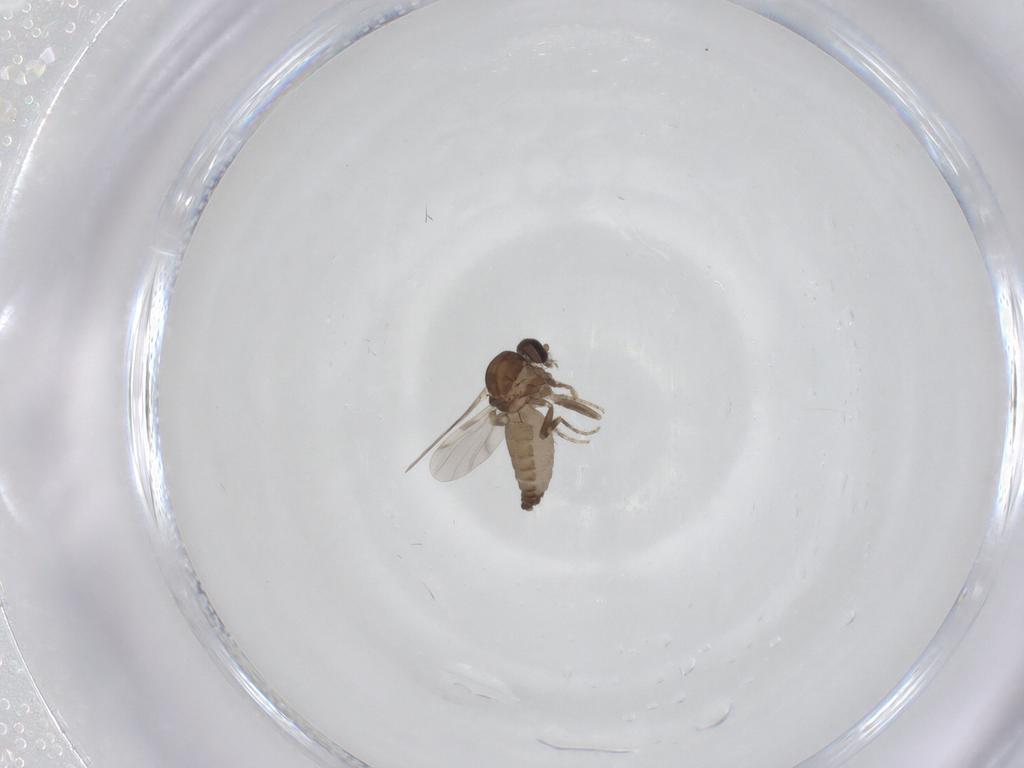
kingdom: Animalia
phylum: Arthropoda
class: Insecta
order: Diptera
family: Ceratopogonidae
